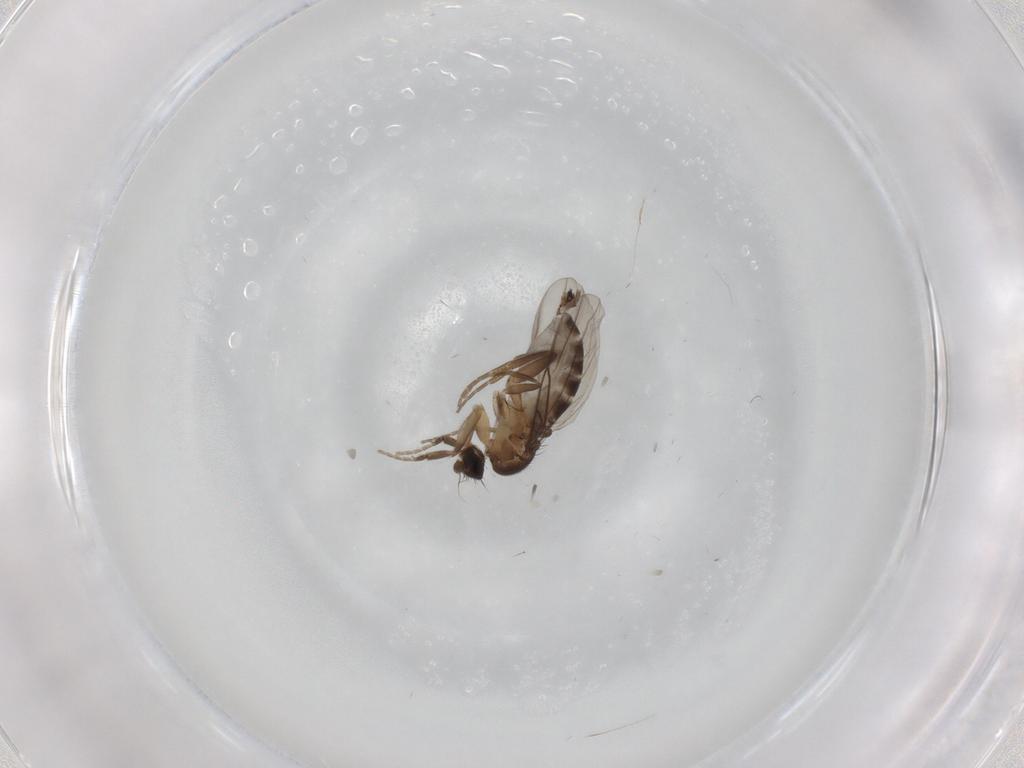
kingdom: Animalia
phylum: Arthropoda
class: Insecta
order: Diptera
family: Phoridae
